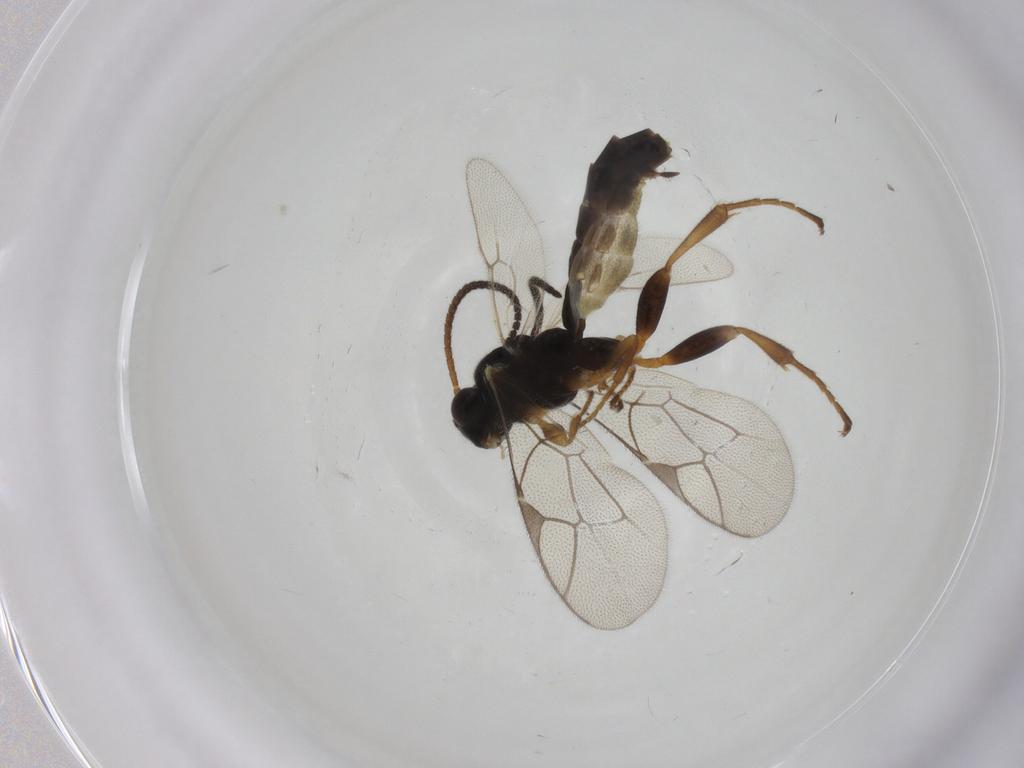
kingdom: Animalia
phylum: Arthropoda
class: Insecta
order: Hymenoptera
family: Ichneumonidae
